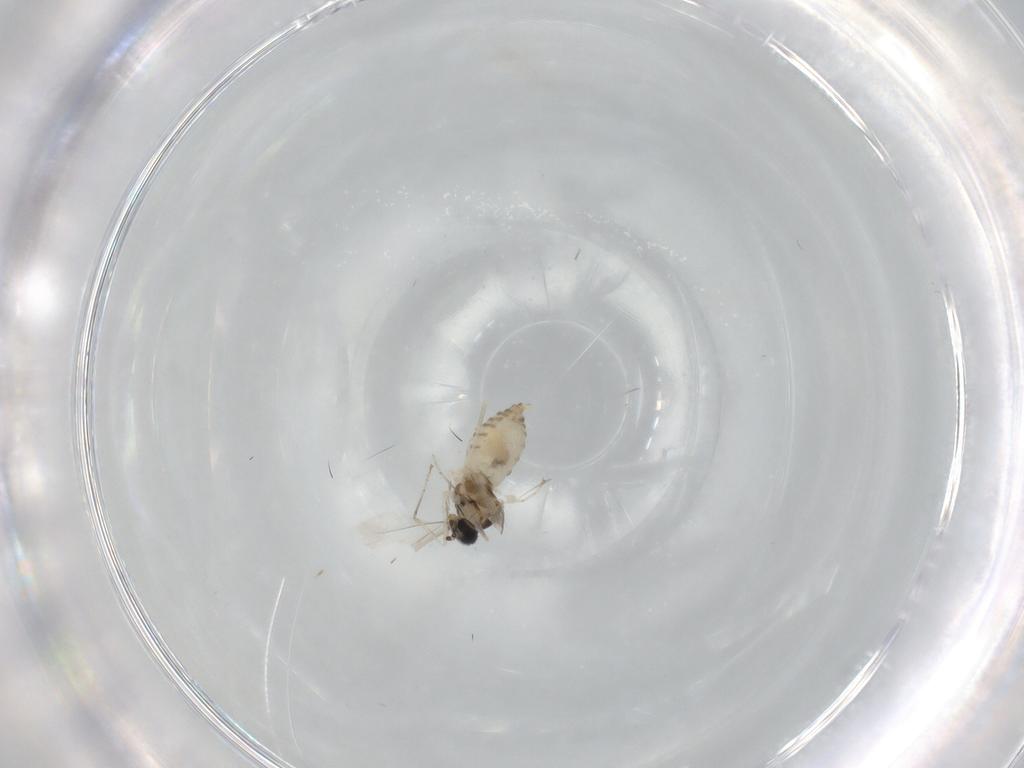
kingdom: Animalia
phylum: Arthropoda
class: Insecta
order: Diptera
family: Cecidomyiidae
